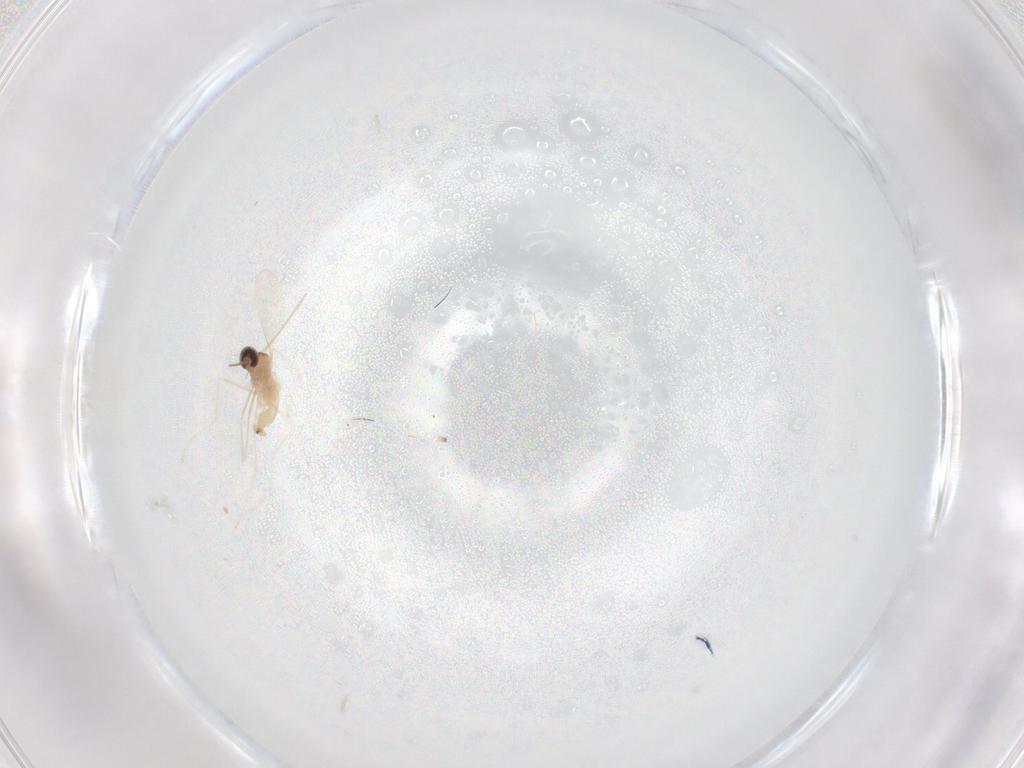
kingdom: Animalia
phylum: Arthropoda
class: Insecta
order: Diptera
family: Cecidomyiidae
